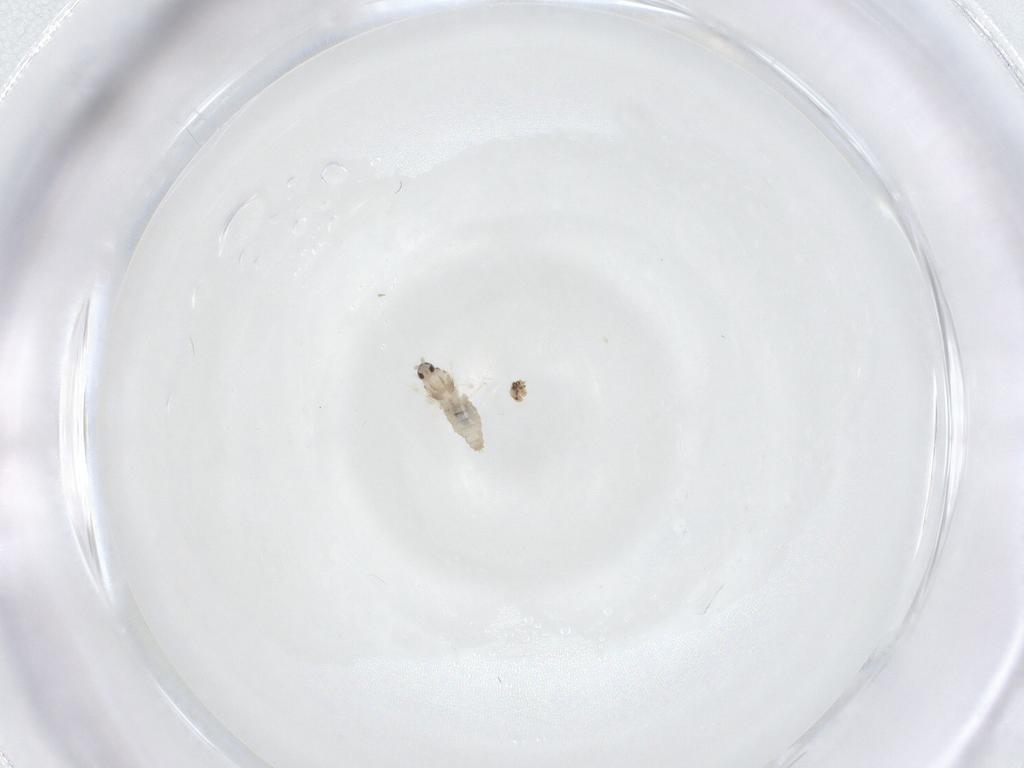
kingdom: Animalia
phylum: Arthropoda
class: Insecta
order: Diptera
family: Cecidomyiidae
